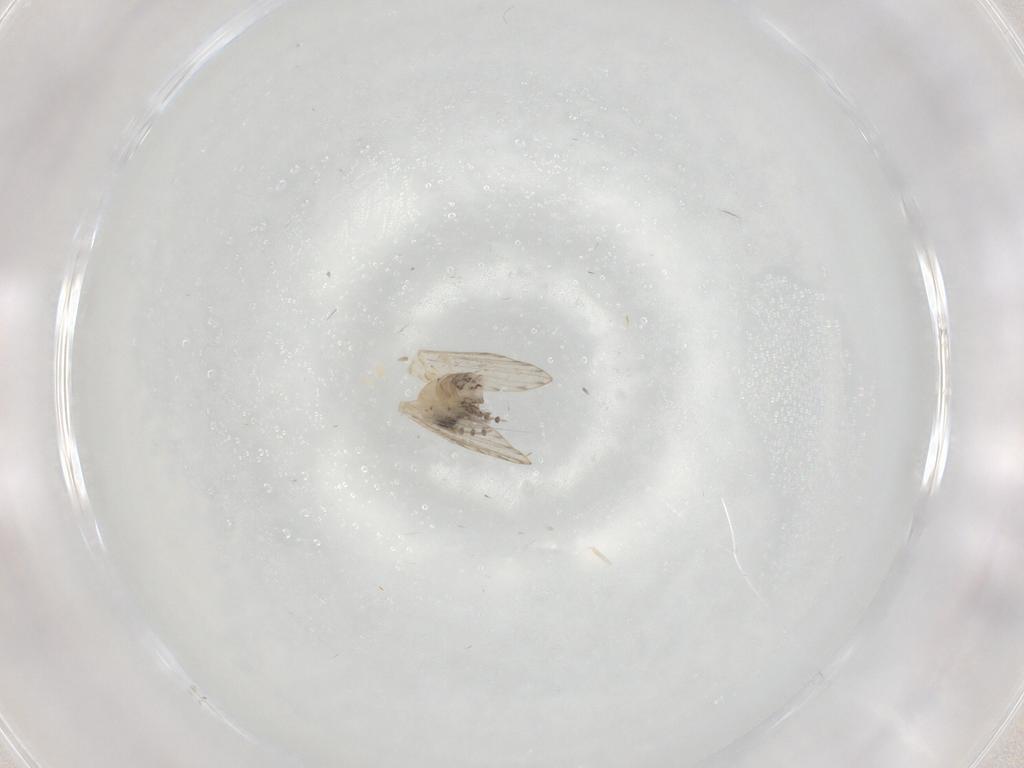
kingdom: Animalia
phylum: Arthropoda
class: Insecta
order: Diptera
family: Psychodidae
